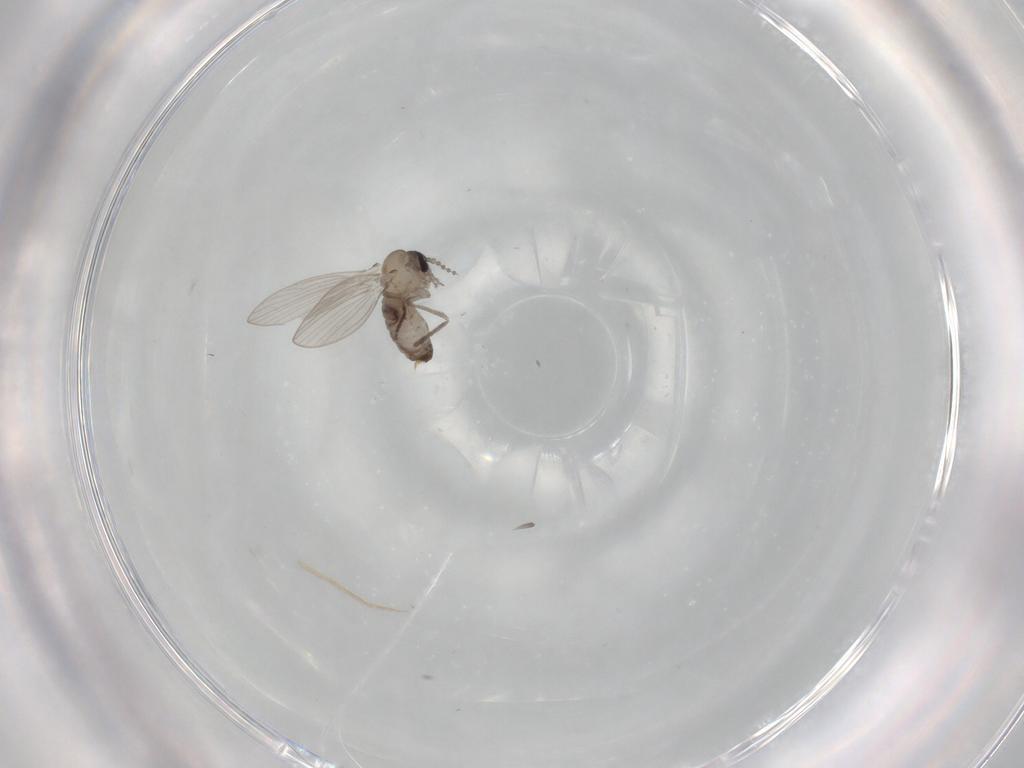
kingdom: Animalia
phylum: Arthropoda
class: Insecta
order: Diptera
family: Psychodidae
